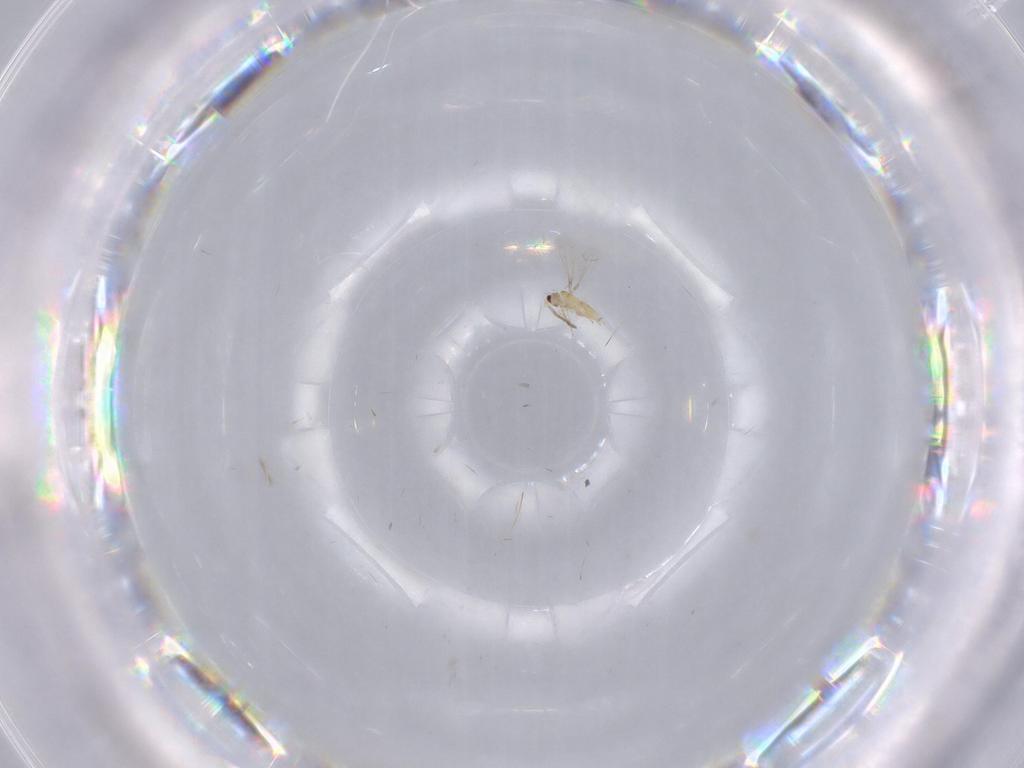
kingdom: Animalia
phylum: Arthropoda
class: Insecta
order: Hymenoptera
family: Mymaridae
